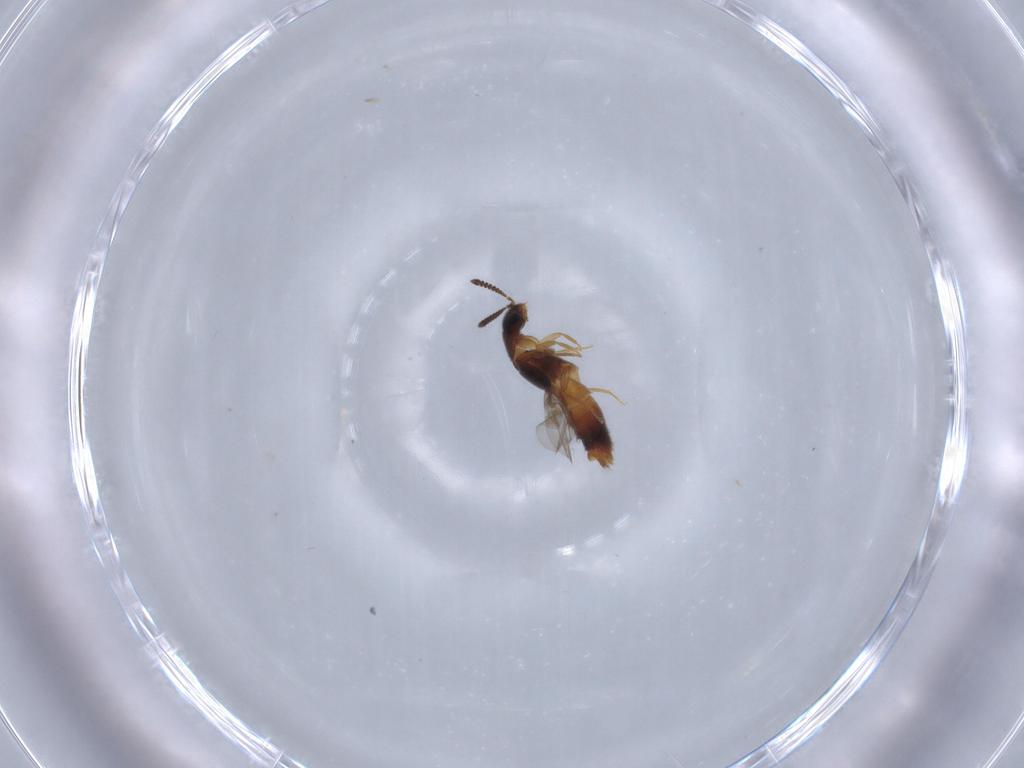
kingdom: Animalia
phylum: Arthropoda
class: Insecta
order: Coleoptera
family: Staphylinidae
